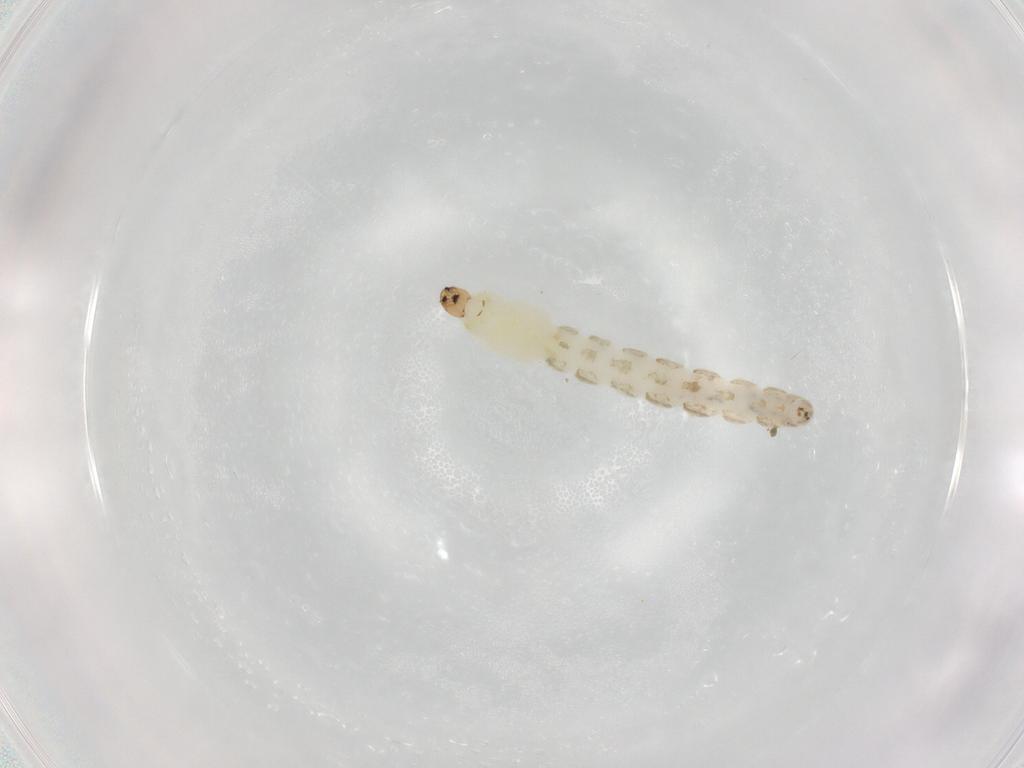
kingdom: Animalia
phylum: Arthropoda
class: Insecta
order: Diptera
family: Chironomidae
